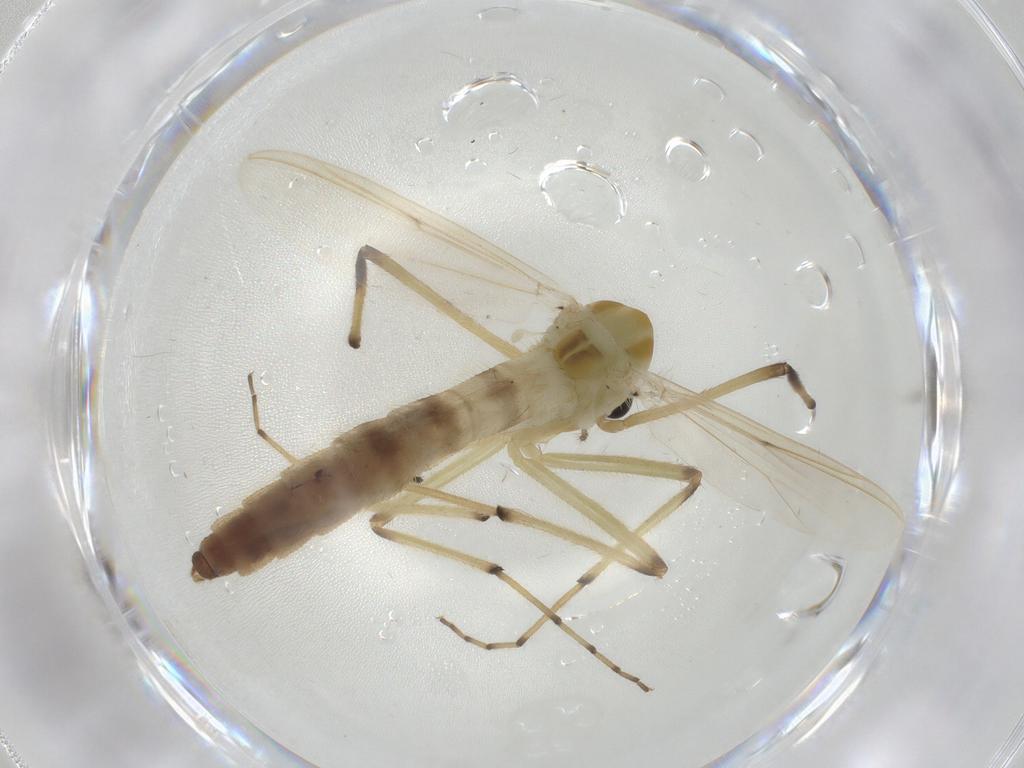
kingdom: Animalia
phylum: Arthropoda
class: Insecta
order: Diptera
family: Chironomidae
